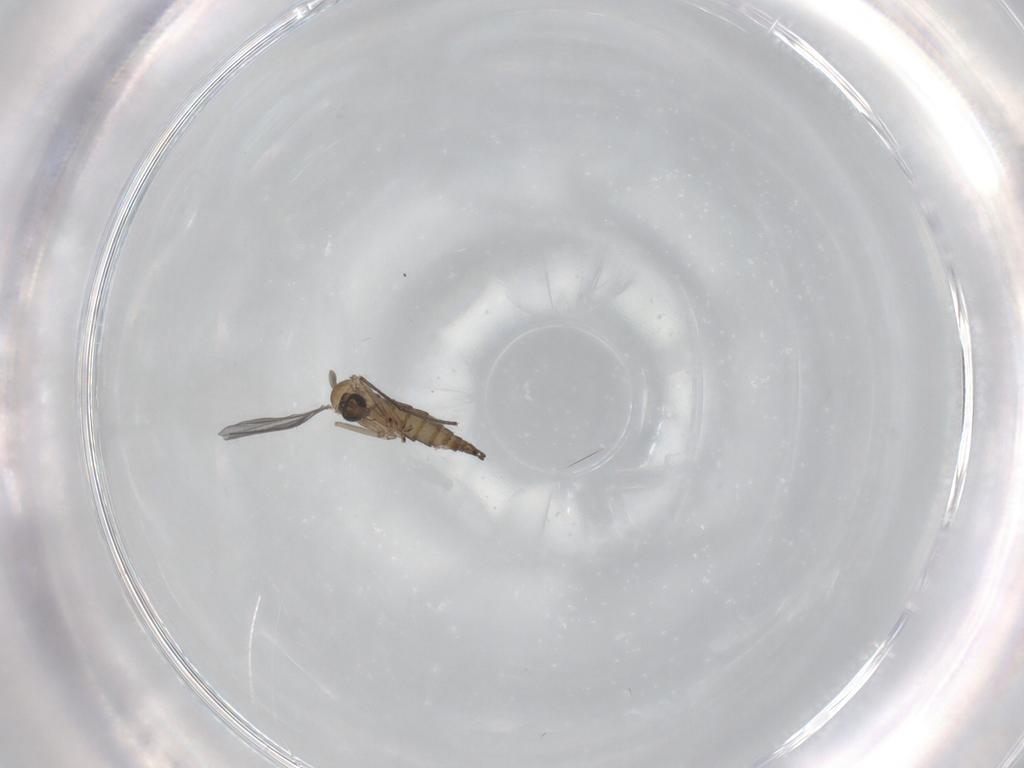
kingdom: Animalia
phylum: Arthropoda
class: Insecta
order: Diptera
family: Sciaridae
